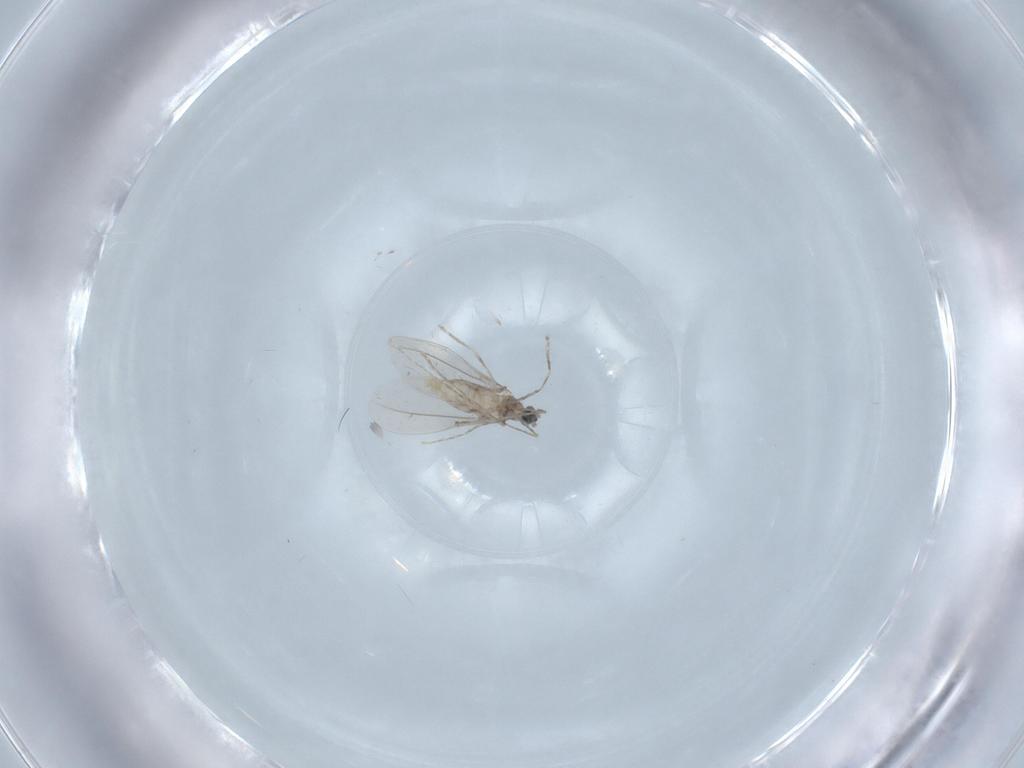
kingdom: Animalia
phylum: Arthropoda
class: Insecta
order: Diptera
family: Cecidomyiidae
